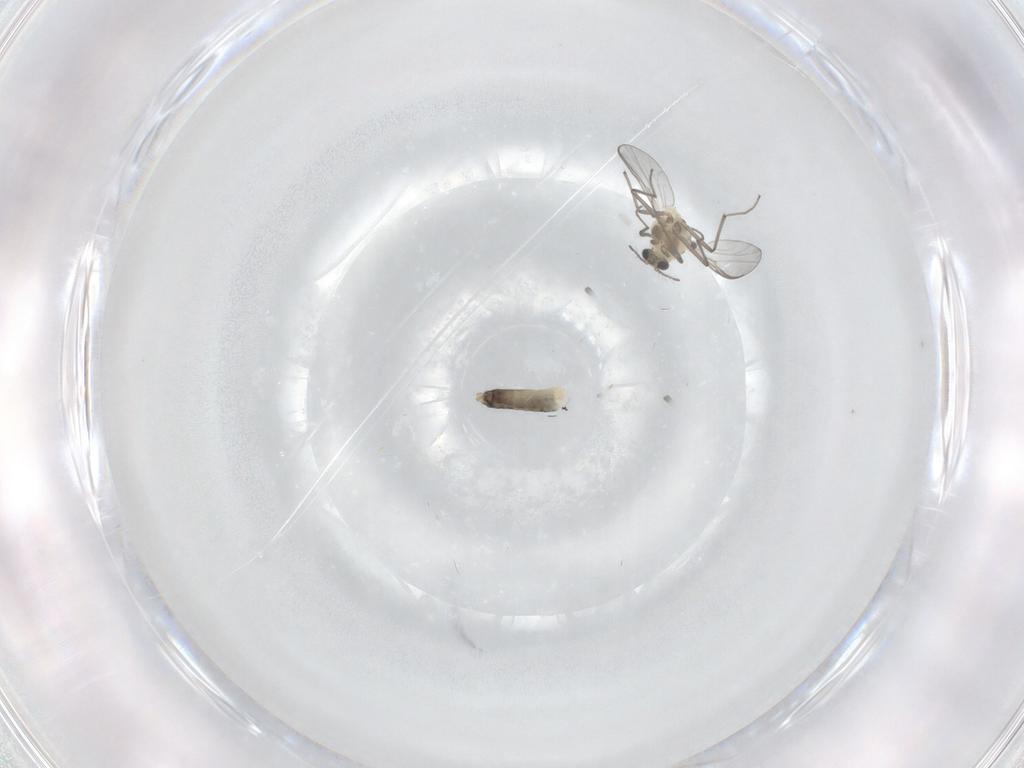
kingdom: Animalia
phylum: Arthropoda
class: Insecta
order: Diptera
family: Chironomidae
